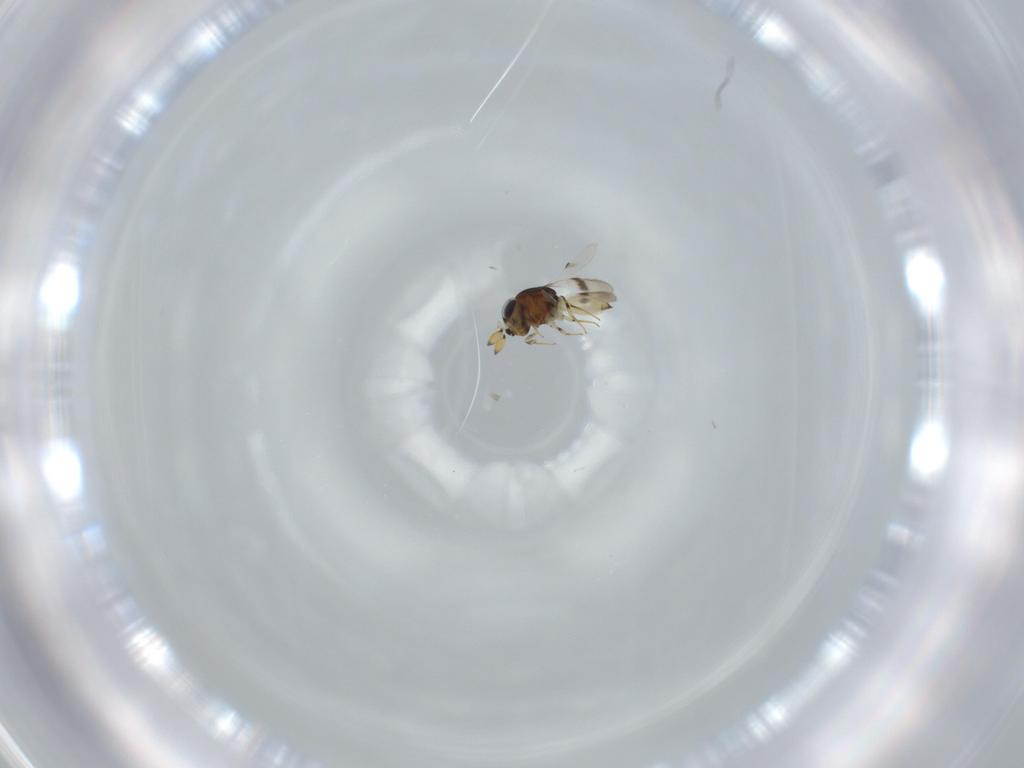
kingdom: Animalia
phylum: Arthropoda
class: Insecta
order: Hymenoptera
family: Scelionidae
